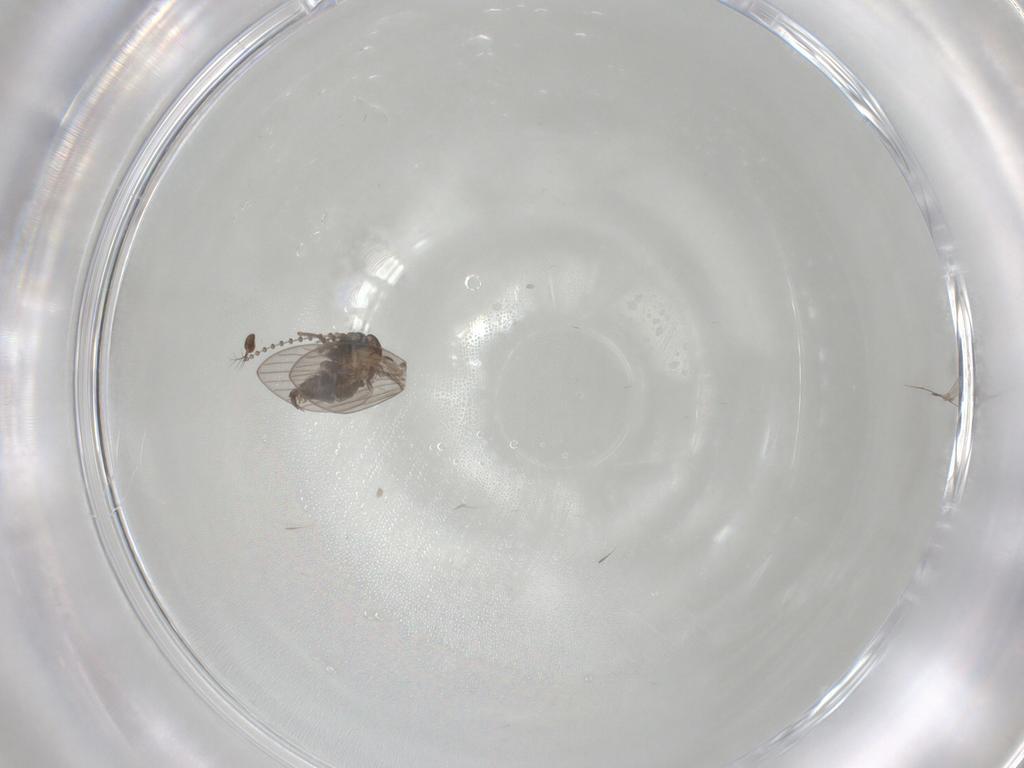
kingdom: Animalia
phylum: Arthropoda
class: Insecta
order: Diptera
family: Psychodidae
